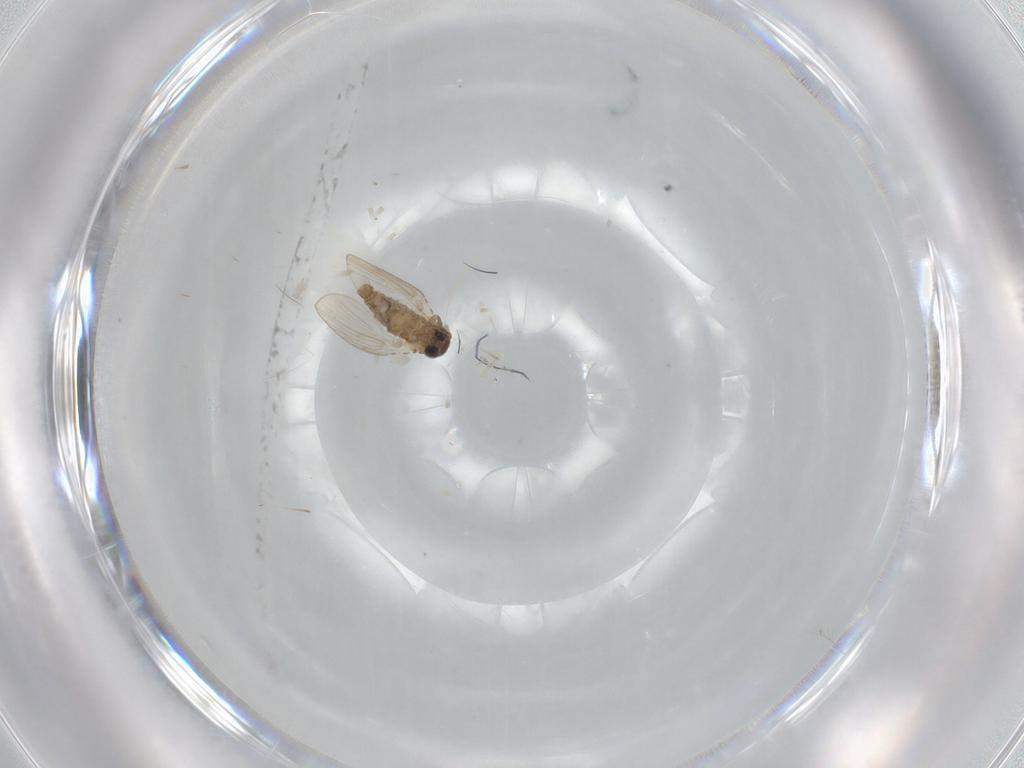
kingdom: Animalia
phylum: Arthropoda
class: Insecta
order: Diptera
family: Psychodidae
